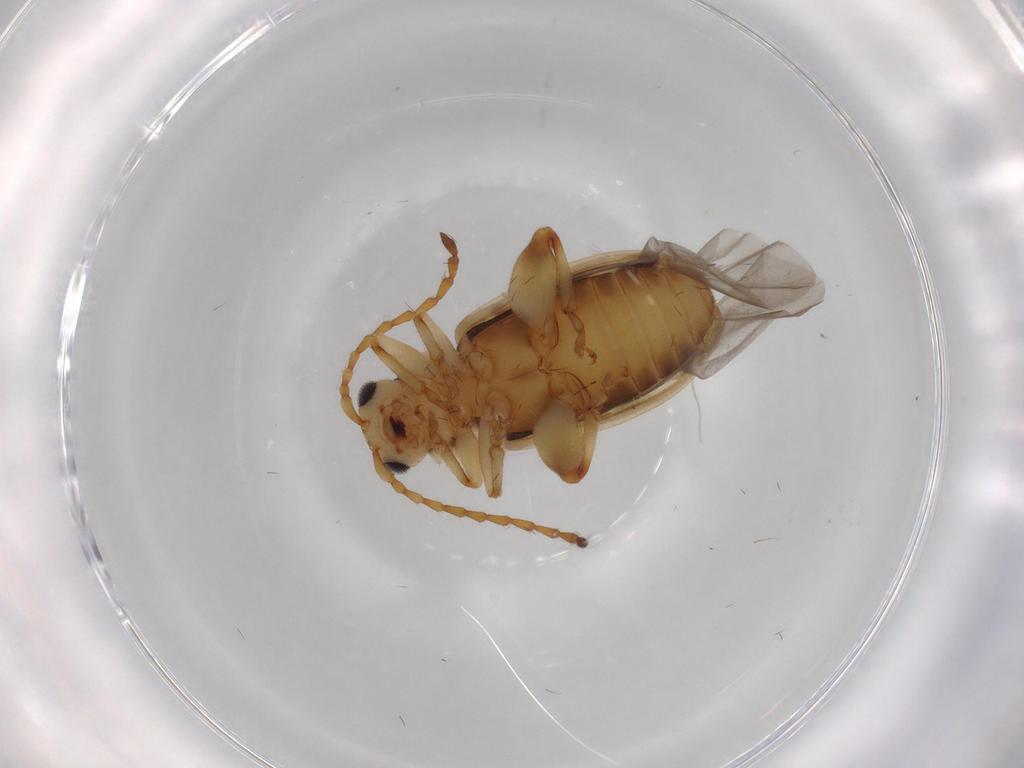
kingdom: Animalia
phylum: Arthropoda
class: Insecta
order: Coleoptera
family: Chrysomelidae
